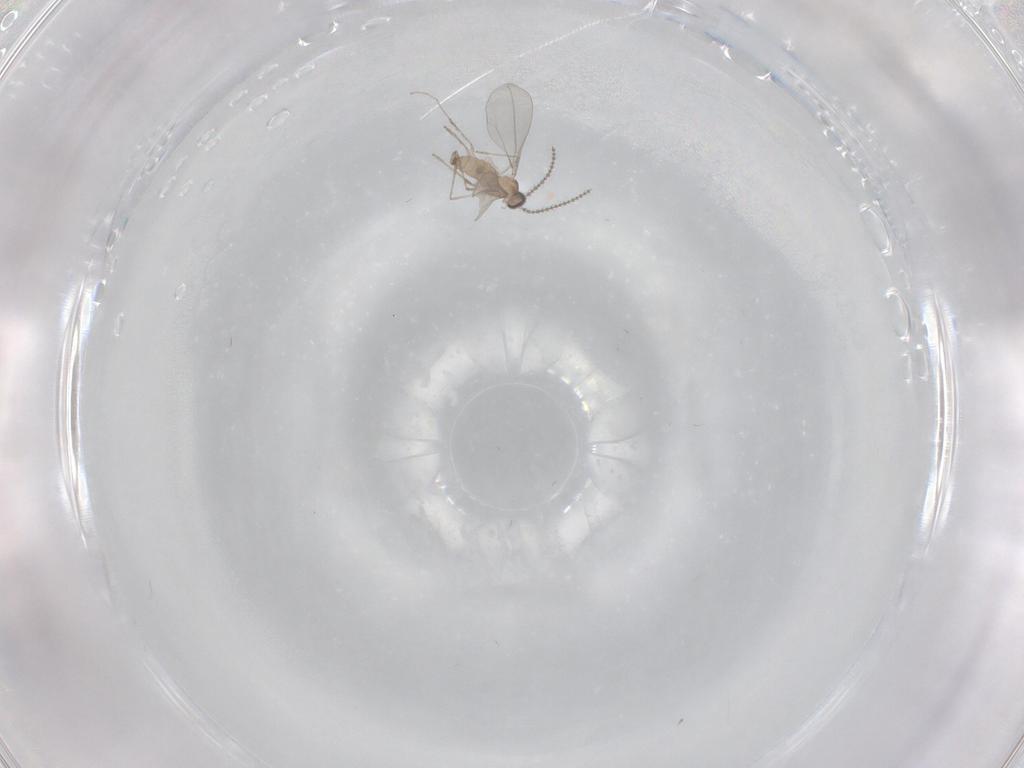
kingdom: Animalia
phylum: Arthropoda
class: Insecta
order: Diptera
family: Cecidomyiidae
